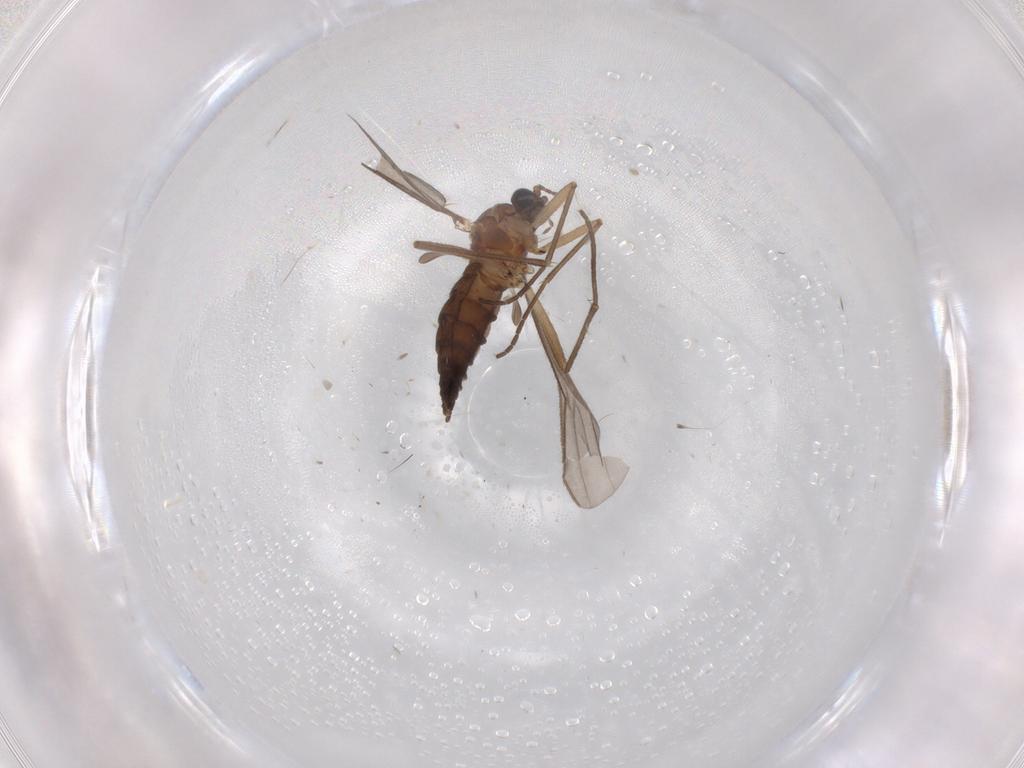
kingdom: Animalia
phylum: Arthropoda
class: Insecta
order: Diptera
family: Sciaridae
